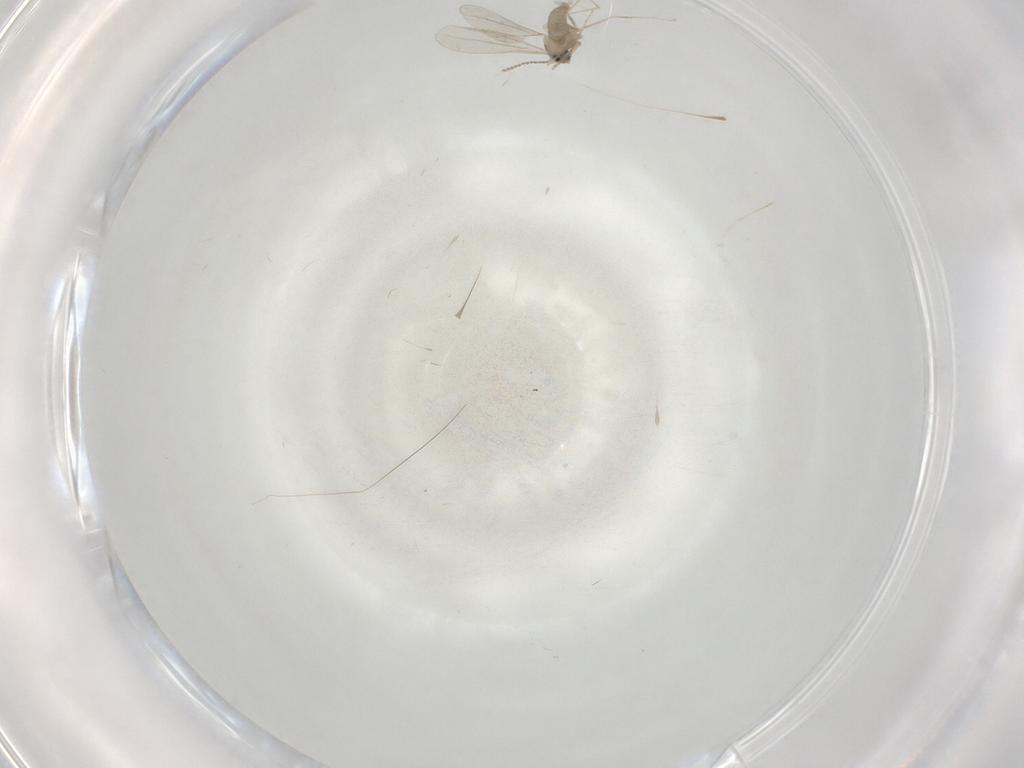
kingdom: Animalia
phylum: Arthropoda
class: Insecta
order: Diptera
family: Cecidomyiidae
